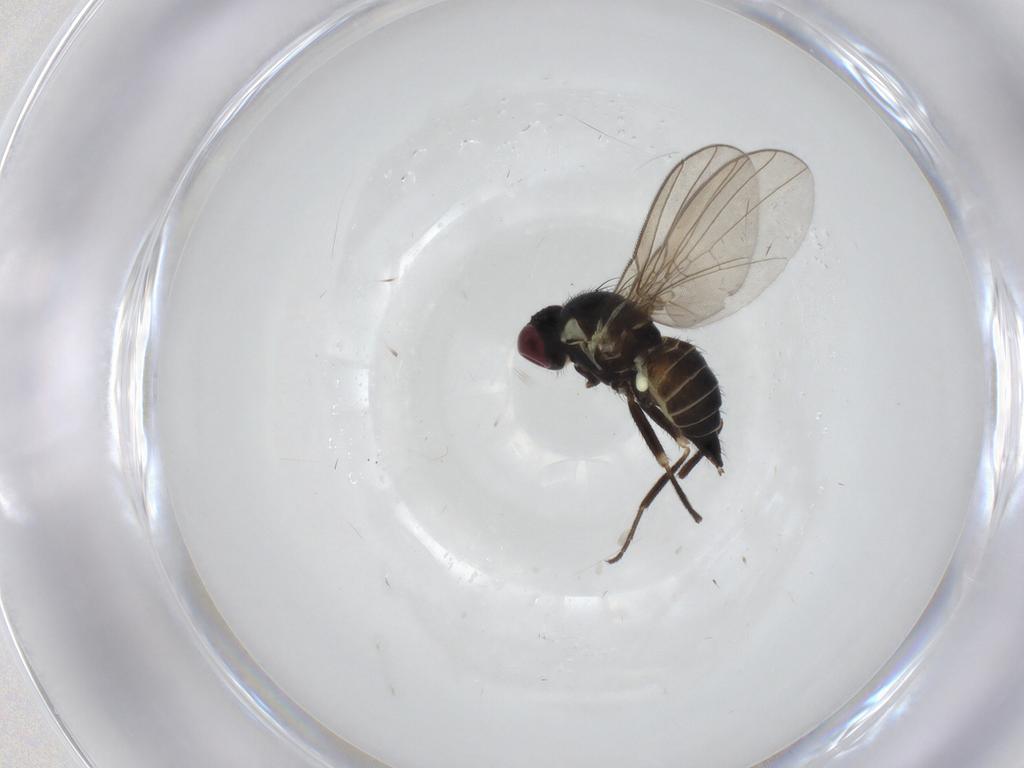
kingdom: Animalia
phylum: Arthropoda
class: Insecta
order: Diptera
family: Agromyzidae
